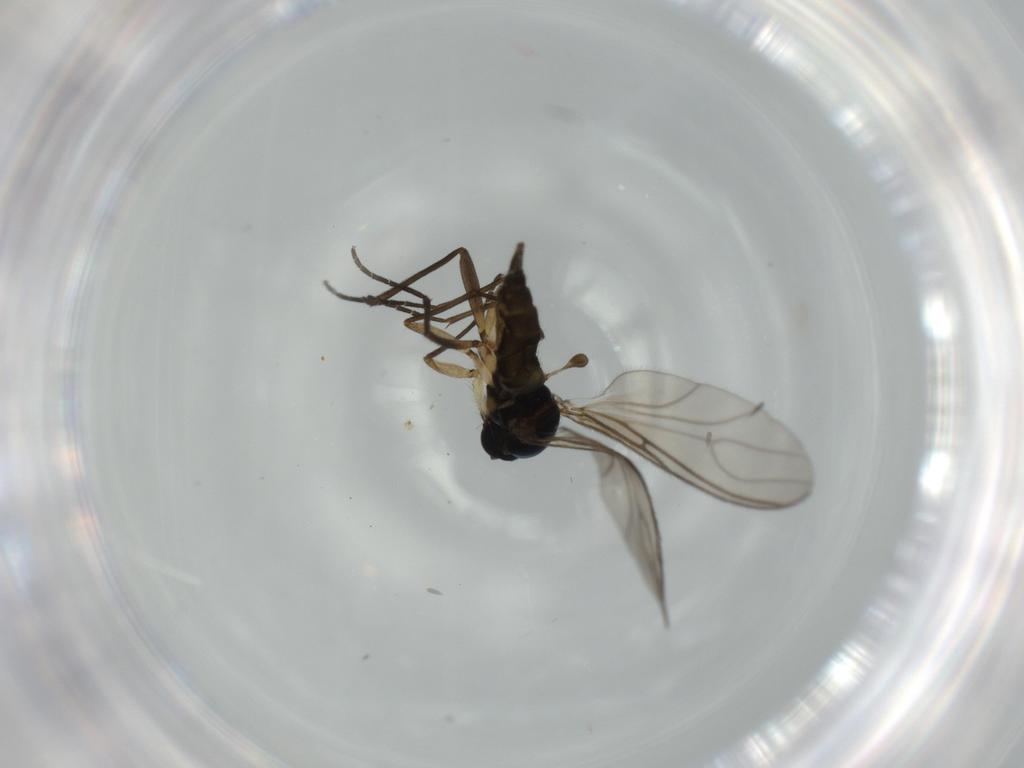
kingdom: Animalia
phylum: Arthropoda
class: Insecta
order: Diptera
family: Sciaridae
